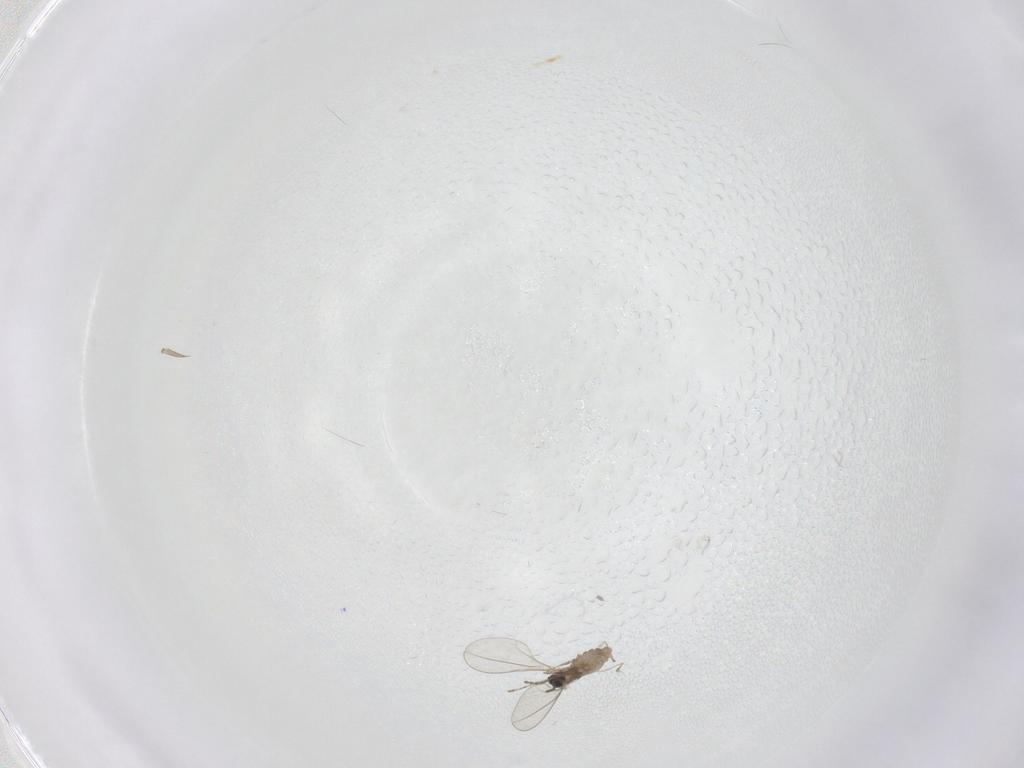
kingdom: Animalia
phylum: Arthropoda
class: Insecta
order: Diptera
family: Cecidomyiidae
